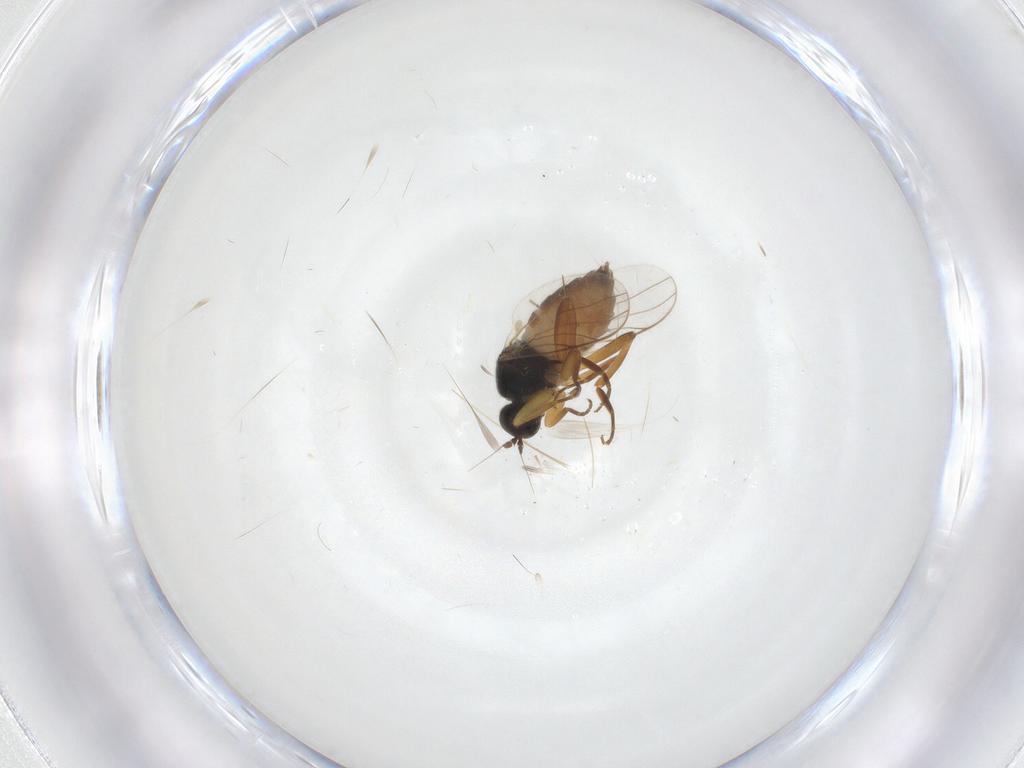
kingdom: Animalia
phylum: Arthropoda
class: Insecta
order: Diptera
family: Hybotidae
